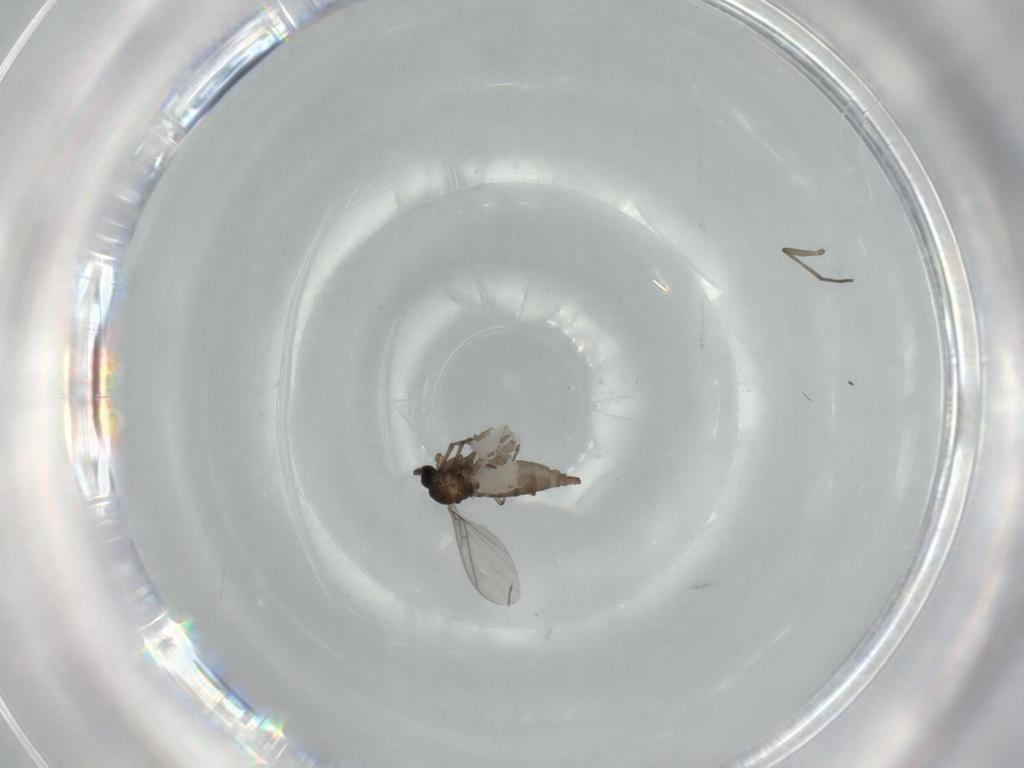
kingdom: Animalia
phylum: Arthropoda
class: Insecta
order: Diptera
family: Sciaridae
